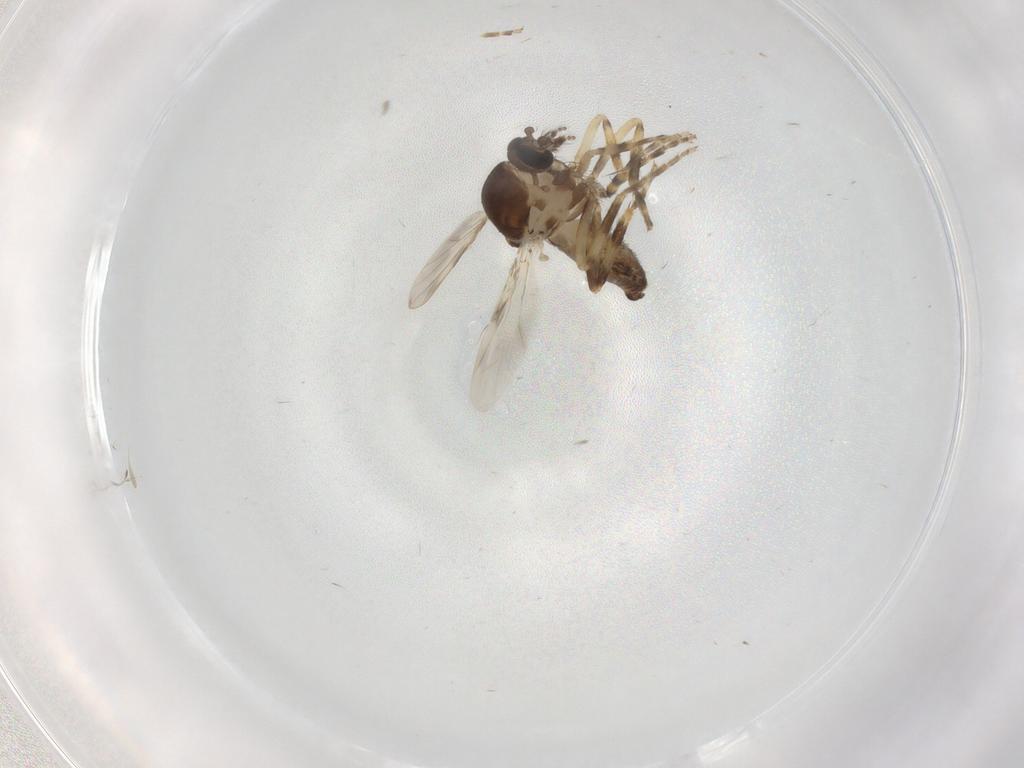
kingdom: Animalia
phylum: Arthropoda
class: Insecta
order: Diptera
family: Ceratopogonidae
